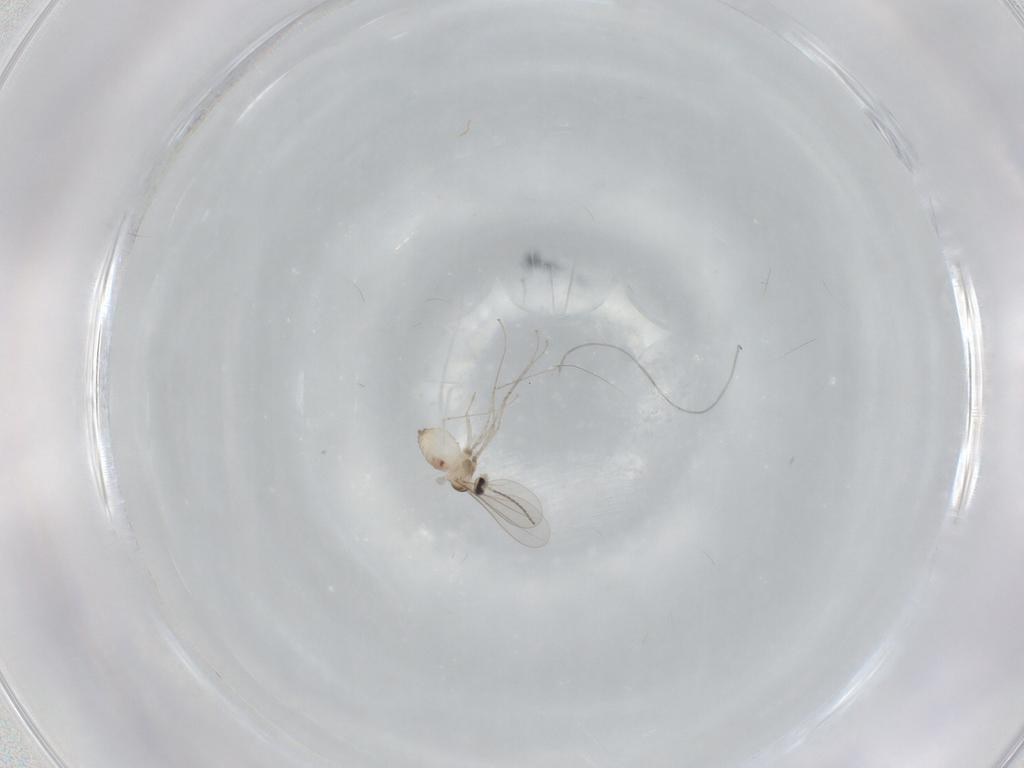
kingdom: Animalia
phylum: Arthropoda
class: Insecta
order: Diptera
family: Cecidomyiidae
